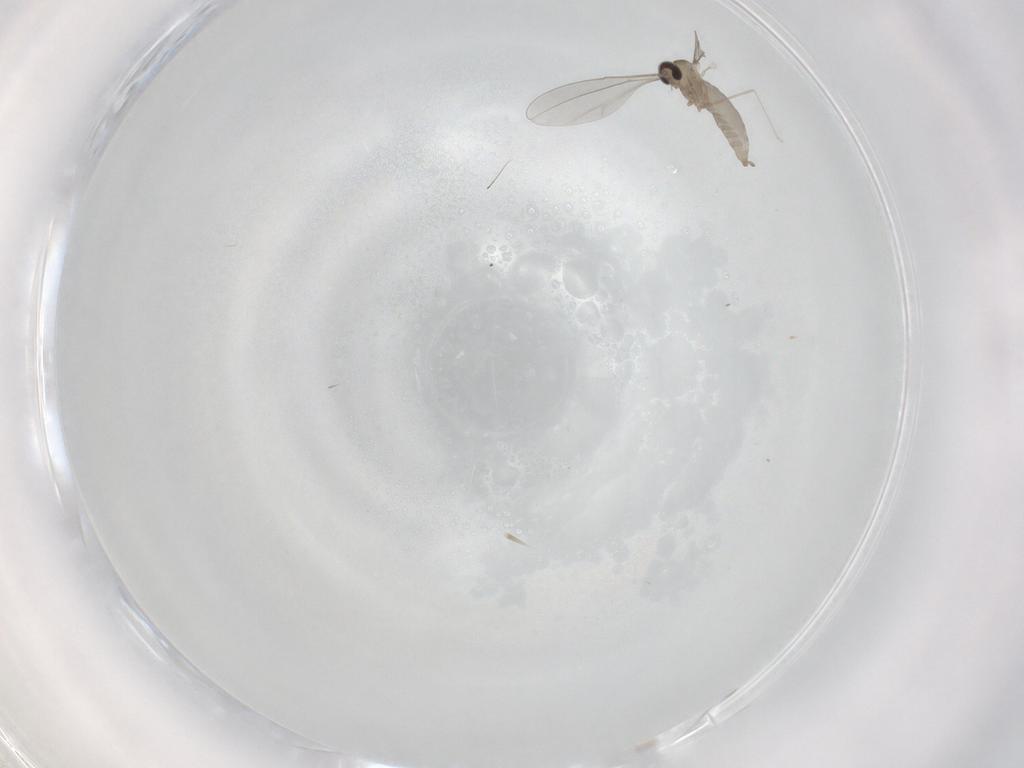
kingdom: Animalia
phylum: Arthropoda
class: Insecta
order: Diptera
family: Cecidomyiidae
